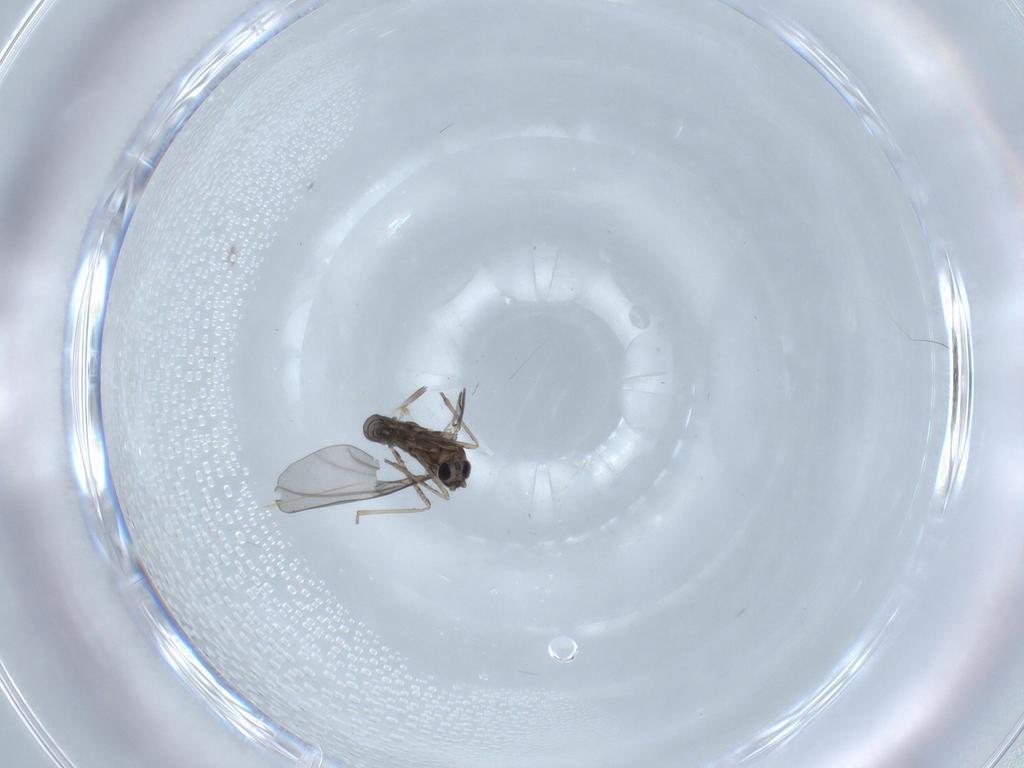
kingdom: Animalia
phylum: Arthropoda
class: Insecta
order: Diptera
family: Sciaridae
